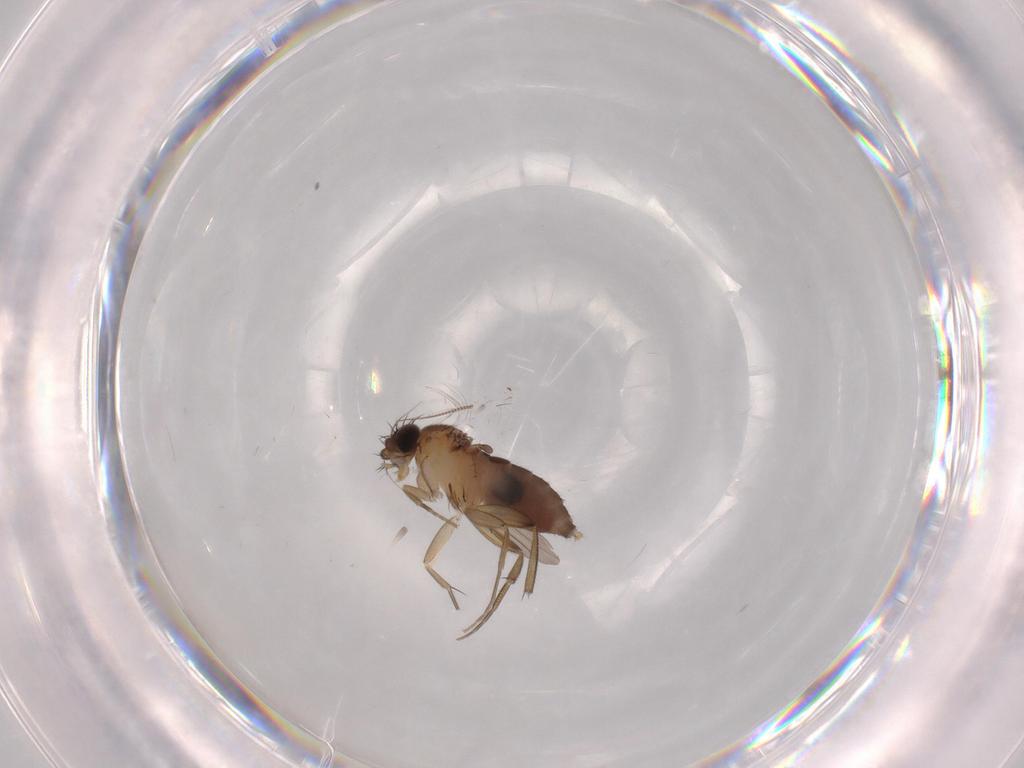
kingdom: Animalia
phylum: Arthropoda
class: Insecta
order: Diptera
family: Phoridae
